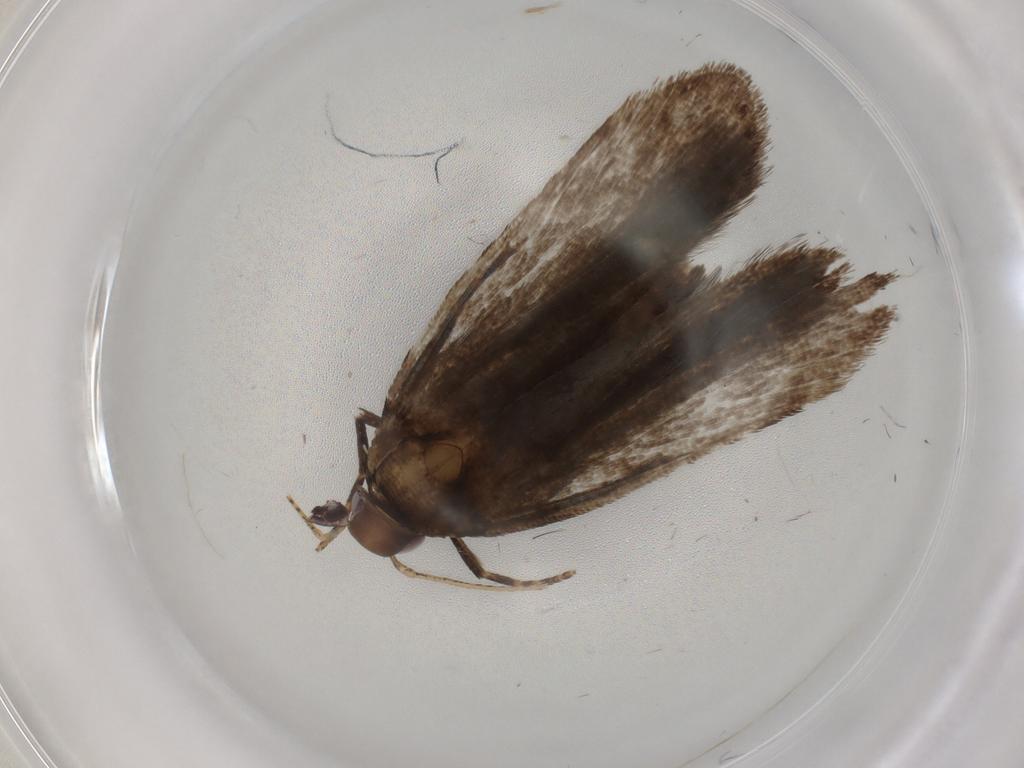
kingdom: Animalia
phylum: Arthropoda
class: Insecta
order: Lepidoptera
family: Gelechiidae
